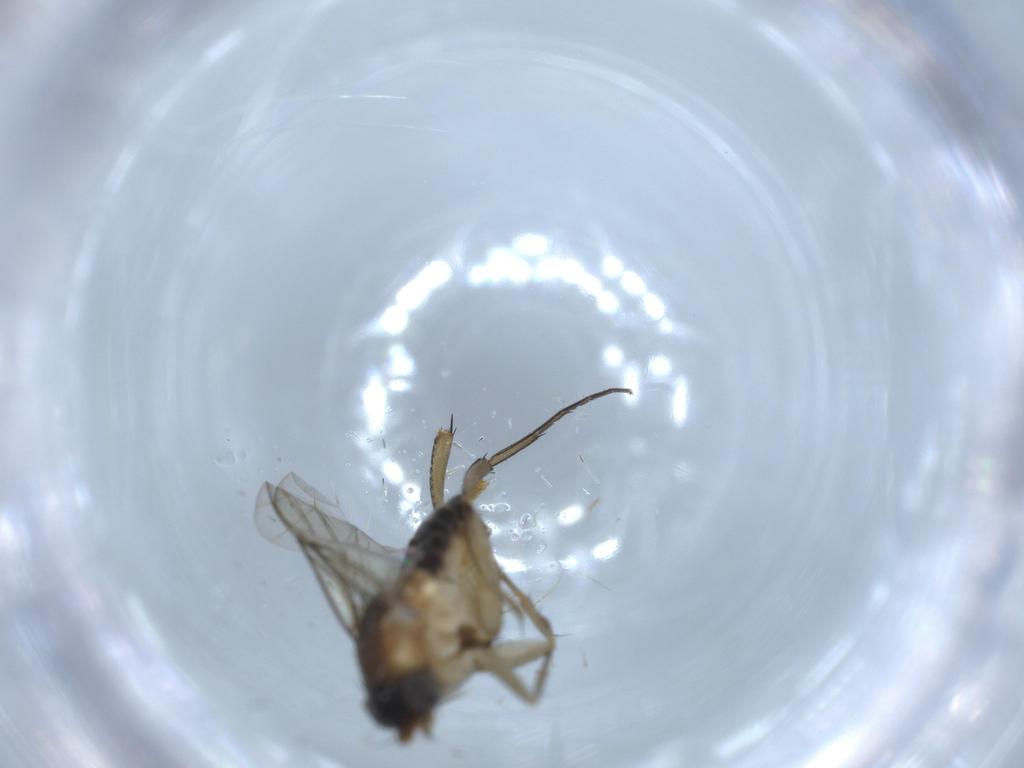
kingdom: Animalia
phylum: Arthropoda
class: Insecta
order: Diptera
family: Phoridae
